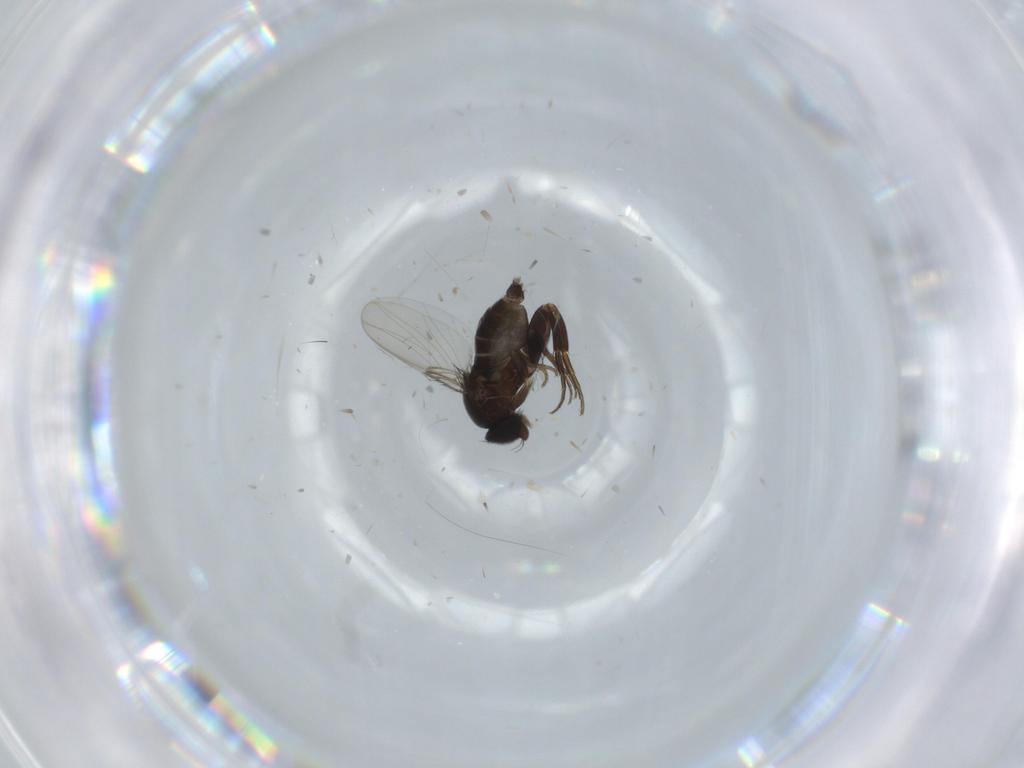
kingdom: Animalia
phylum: Arthropoda
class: Insecta
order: Diptera
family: Phoridae
